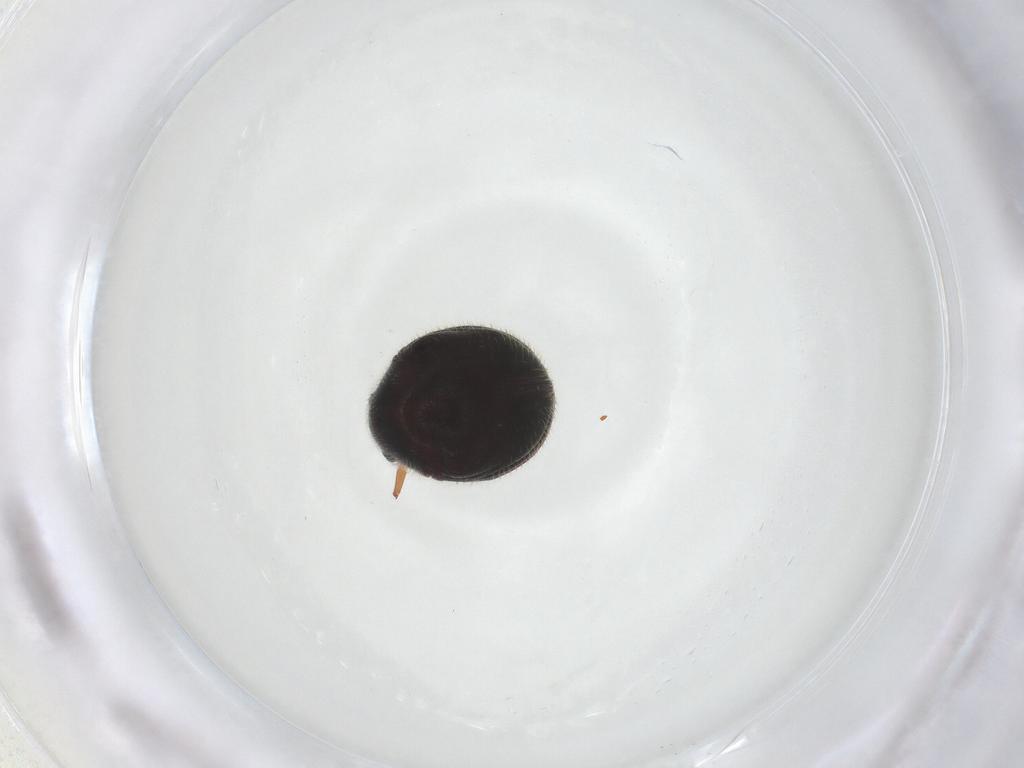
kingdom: Animalia
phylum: Arthropoda
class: Insecta
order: Coleoptera
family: Ptinidae
